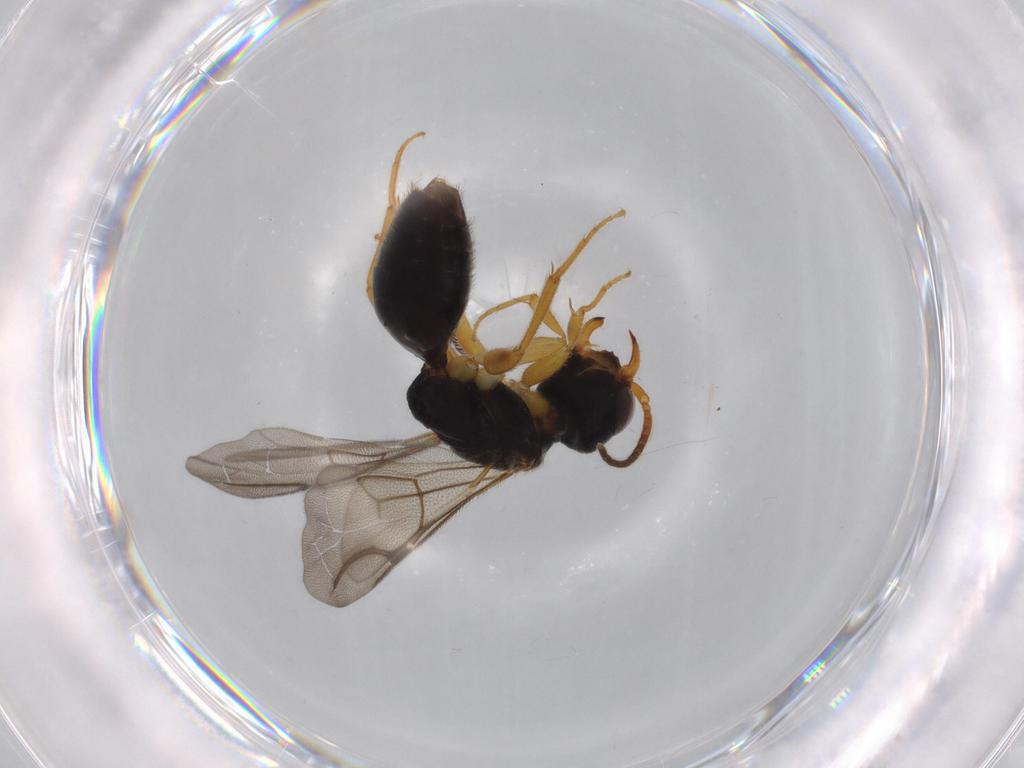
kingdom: Animalia
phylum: Arthropoda
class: Insecta
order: Hymenoptera
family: Bethylidae
